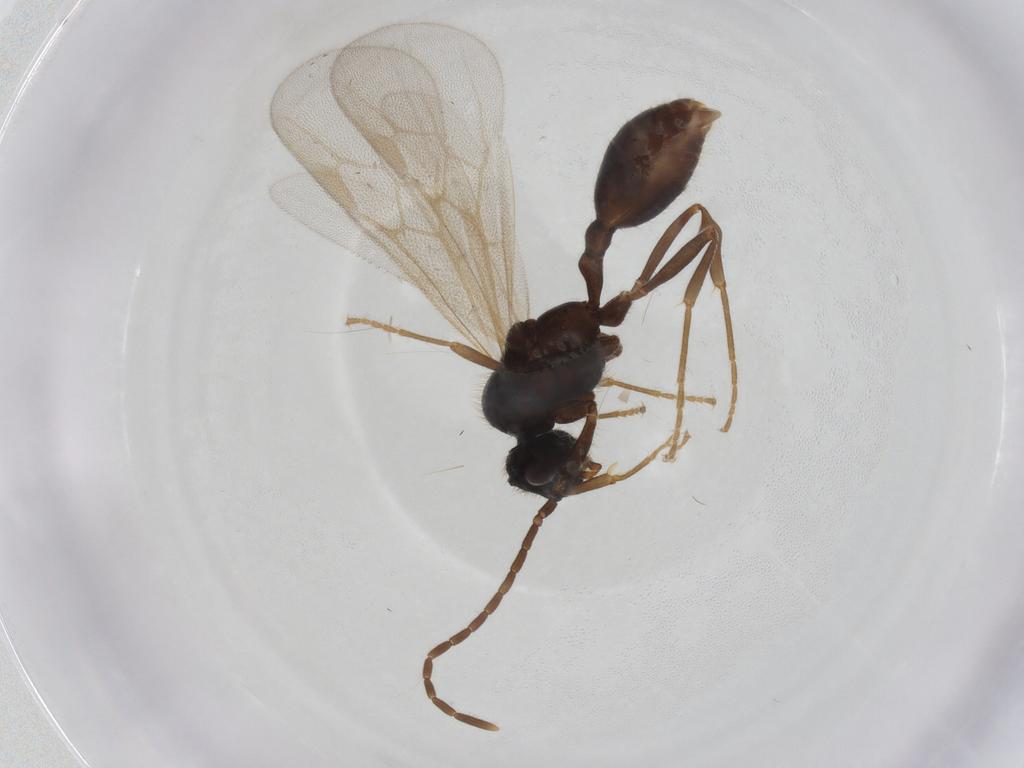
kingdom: Animalia
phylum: Arthropoda
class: Insecta
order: Hymenoptera
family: Formicidae
